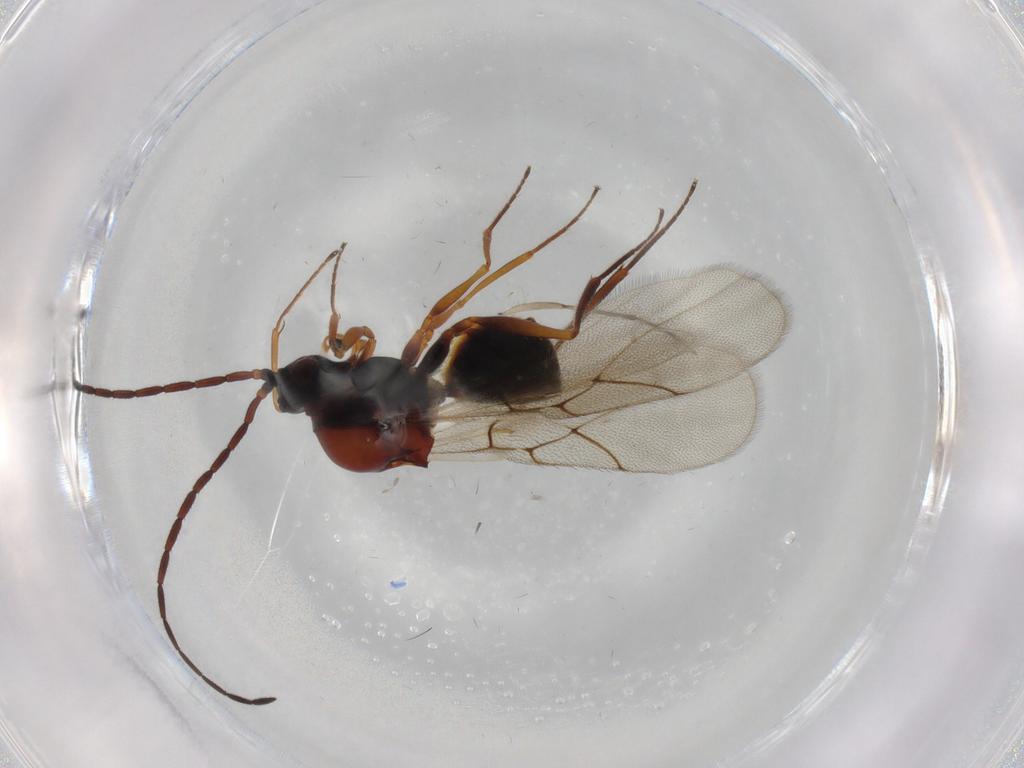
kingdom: Animalia
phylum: Arthropoda
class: Insecta
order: Hymenoptera
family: Figitidae
